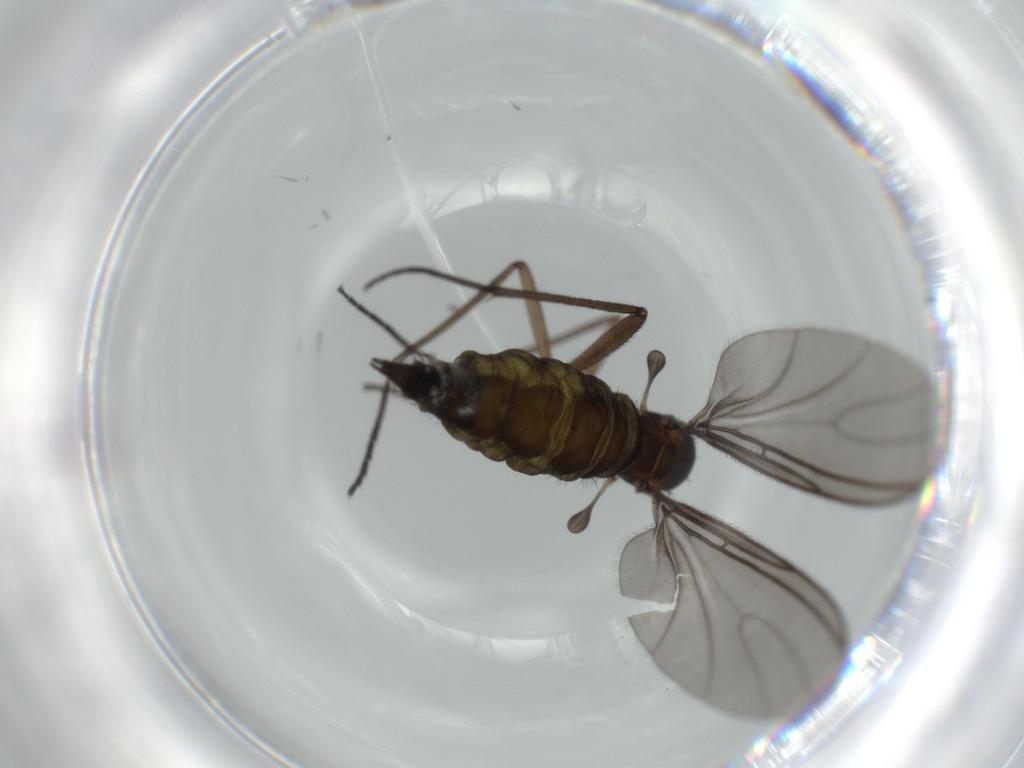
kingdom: Animalia
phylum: Arthropoda
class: Insecta
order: Diptera
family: Sciaridae
